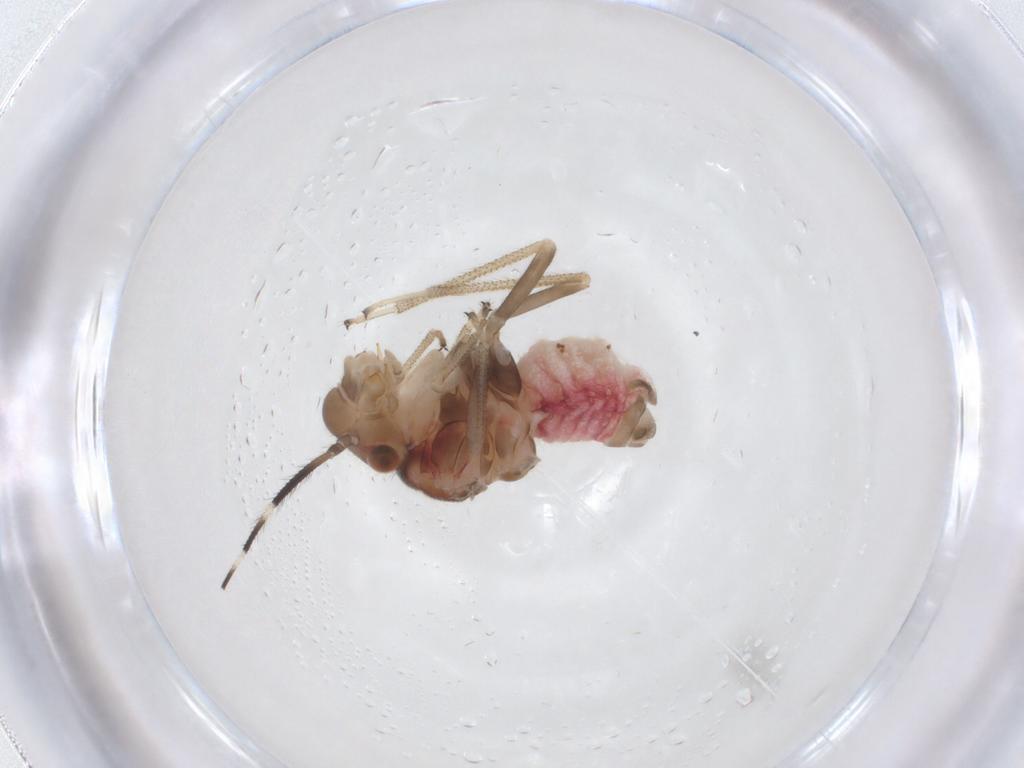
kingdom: Animalia
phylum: Arthropoda
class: Insecta
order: Psocodea
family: Amphipsocidae
